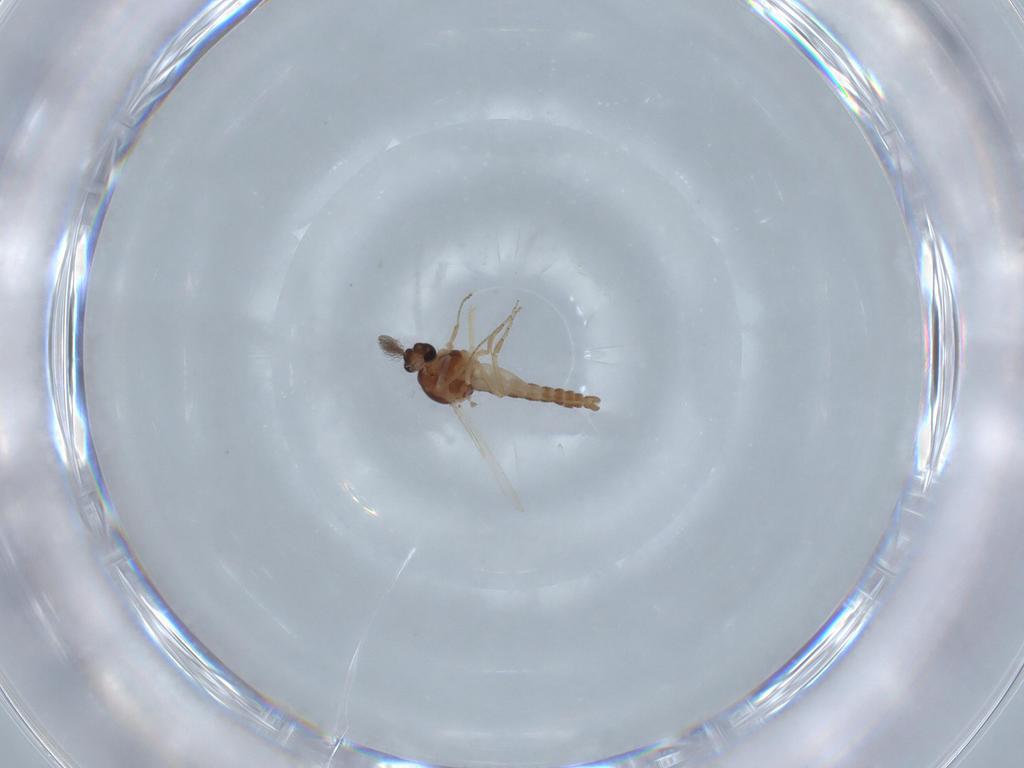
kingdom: Animalia
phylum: Arthropoda
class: Insecta
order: Diptera
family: Ceratopogonidae
